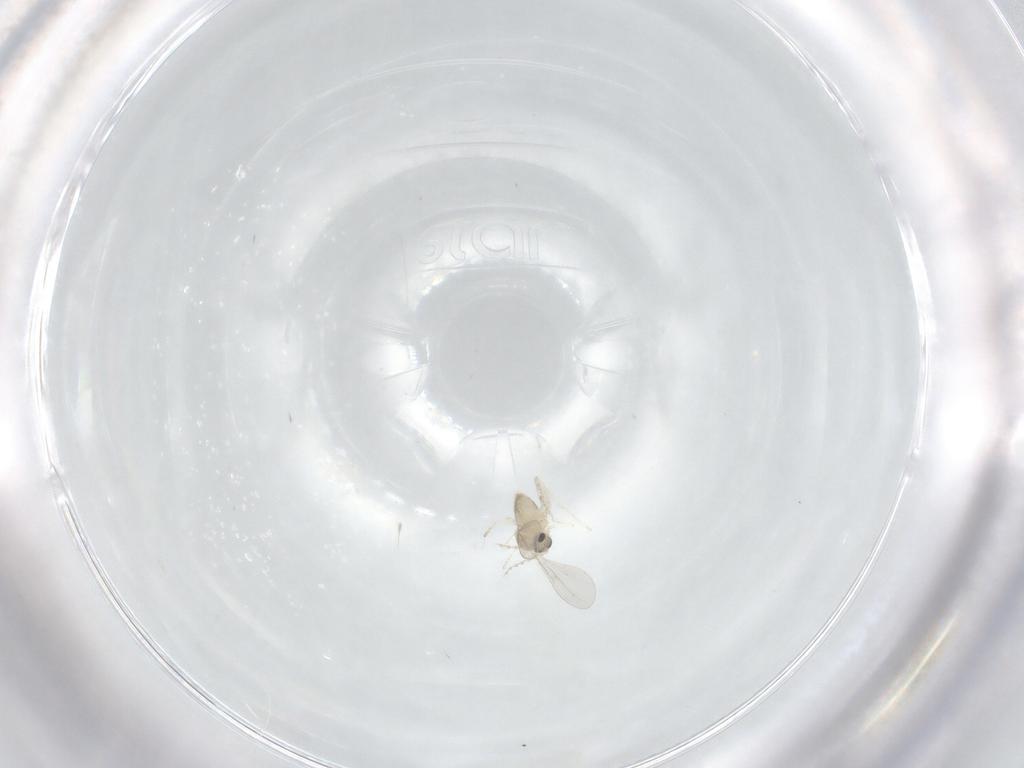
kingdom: Animalia
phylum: Arthropoda
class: Insecta
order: Diptera
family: Cecidomyiidae
